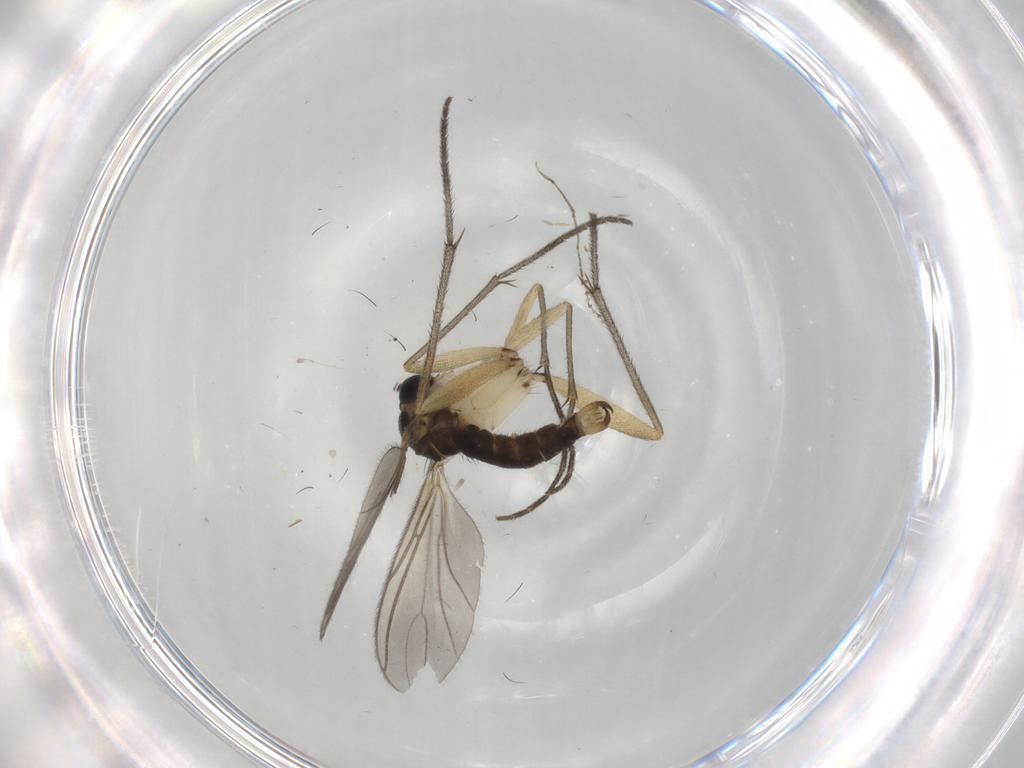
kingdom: Animalia
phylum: Arthropoda
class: Insecta
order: Diptera
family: Sciaridae
